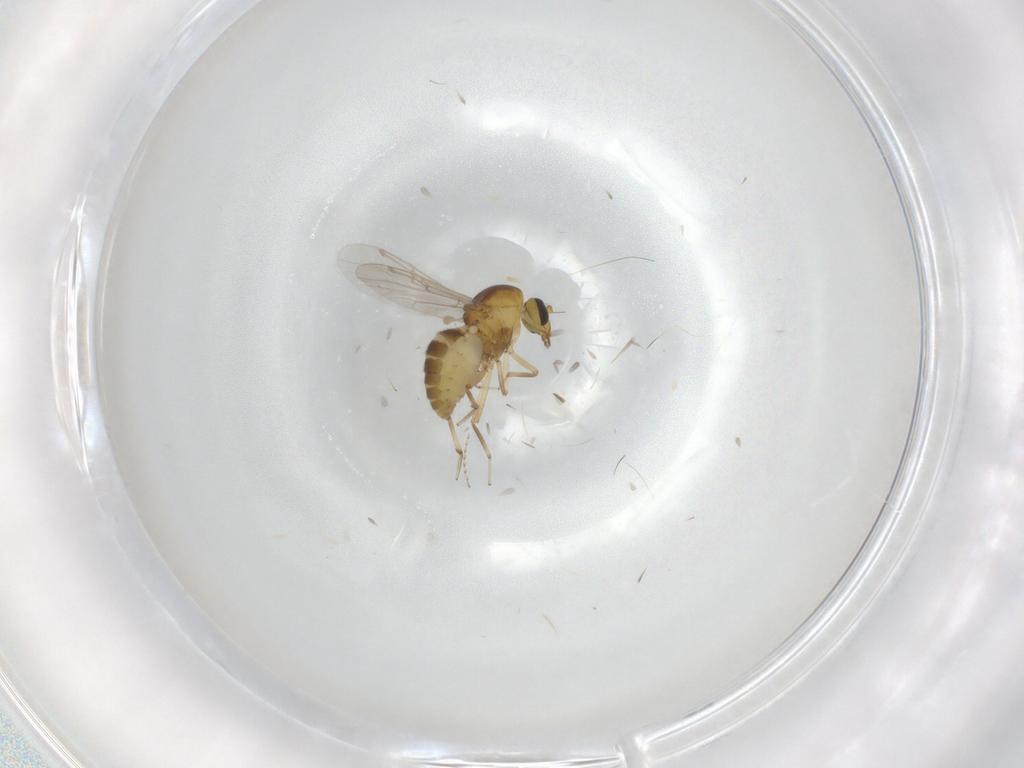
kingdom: Animalia
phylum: Arthropoda
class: Insecta
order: Diptera
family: Chironomidae
